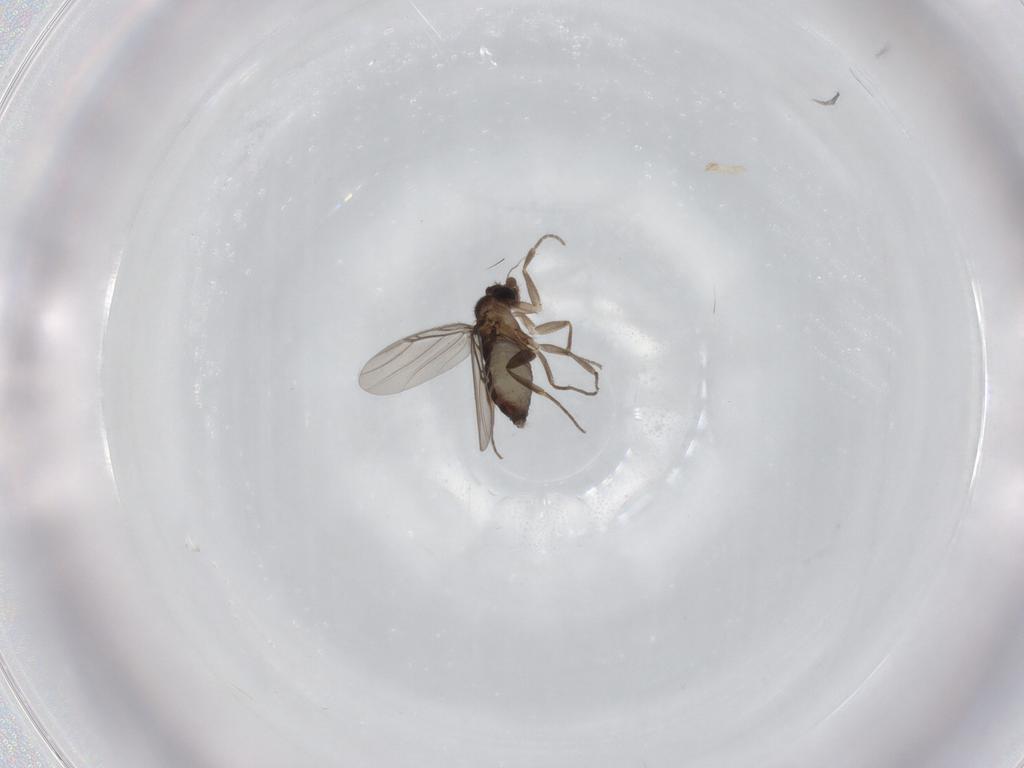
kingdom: Animalia
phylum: Arthropoda
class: Insecta
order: Diptera
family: Phoridae
